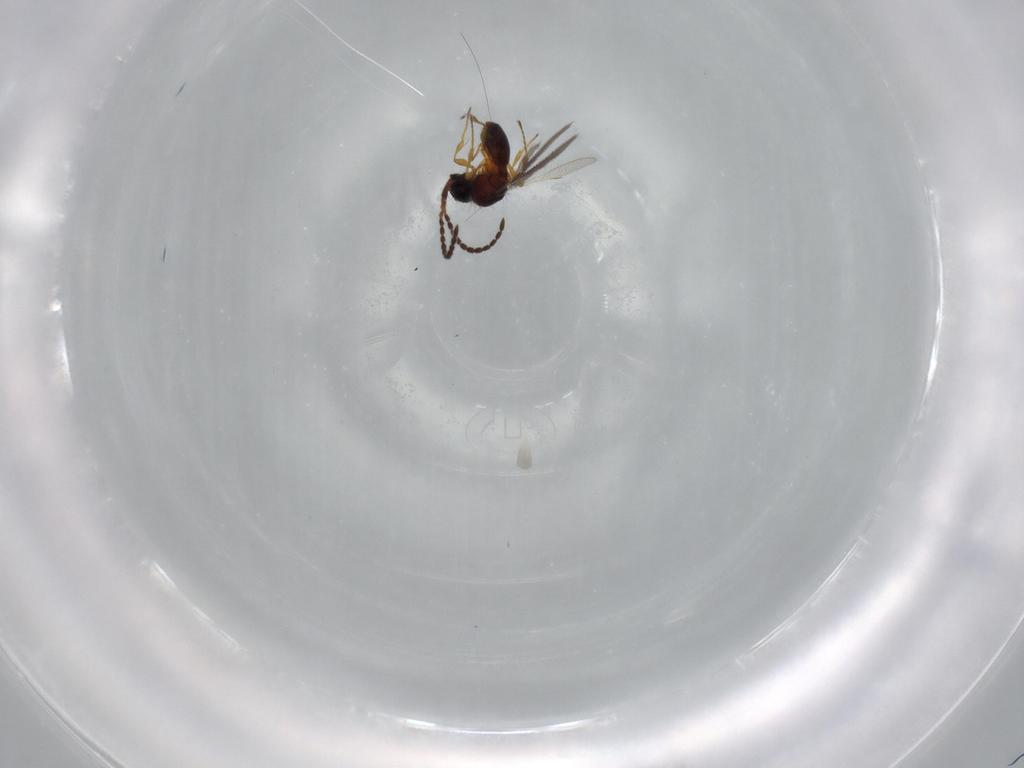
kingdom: Animalia
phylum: Arthropoda
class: Insecta
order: Hymenoptera
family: Diapriidae
